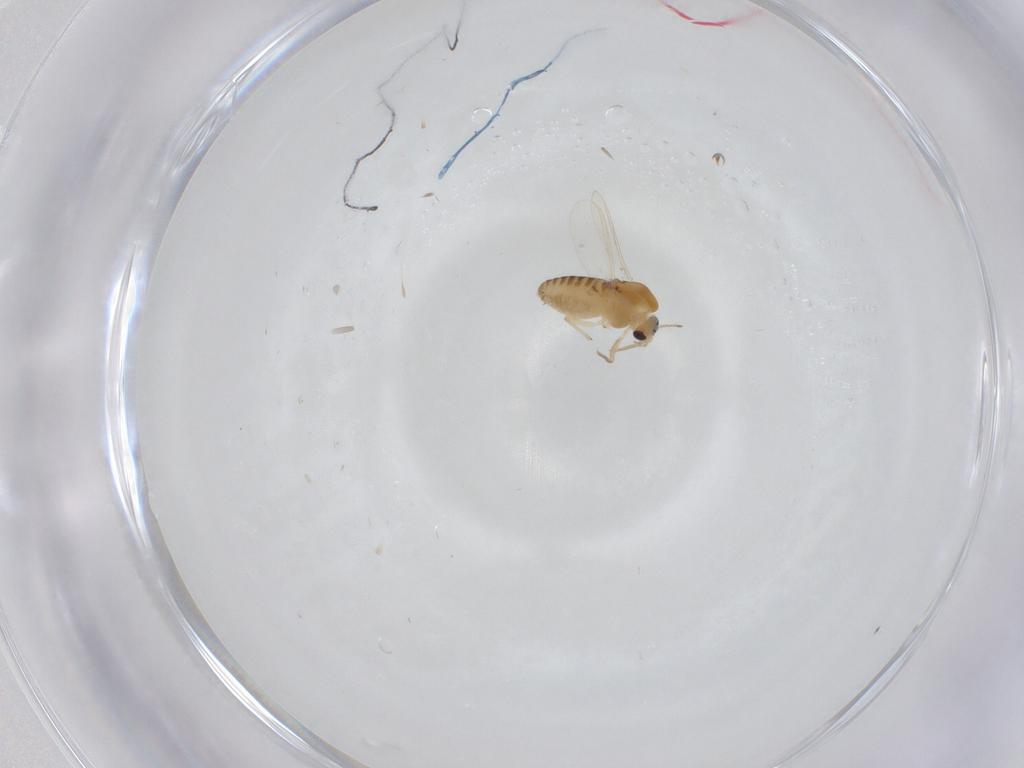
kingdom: Animalia
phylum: Arthropoda
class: Insecta
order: Diptera
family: Chironomidae
